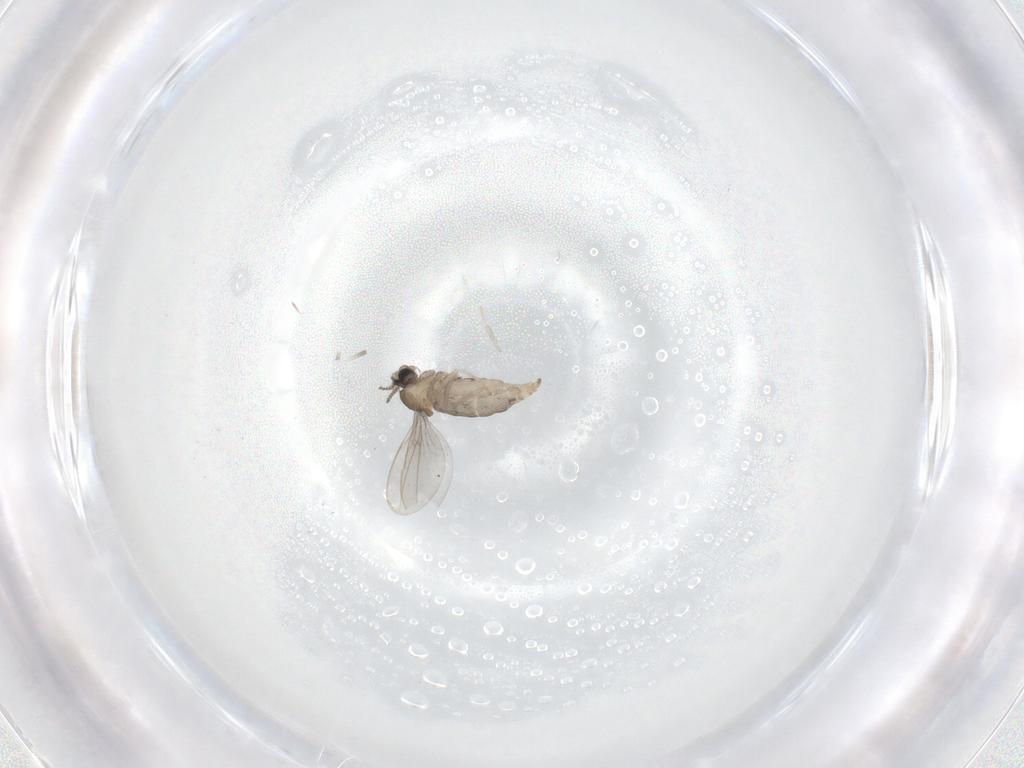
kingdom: Animalia
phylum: Arthropoda
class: Insecta
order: Diptera
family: Cecidomyiidae
